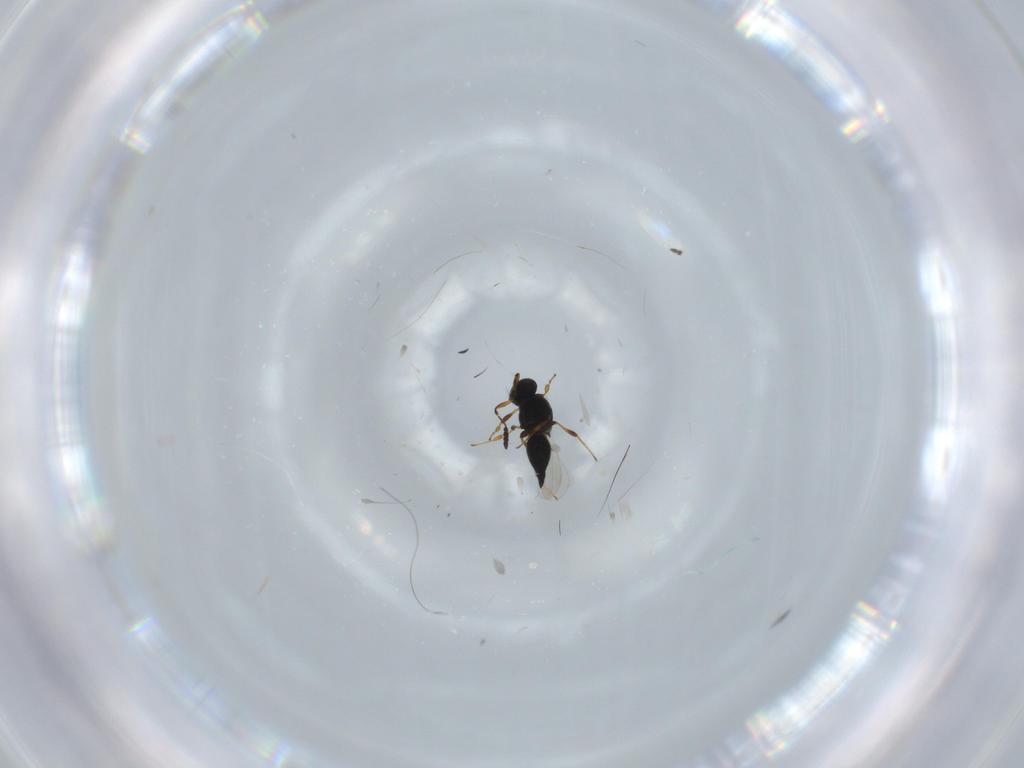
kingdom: Animalia
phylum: Arthropoda
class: Insecta
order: Hymenoptera
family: Platygastridae
